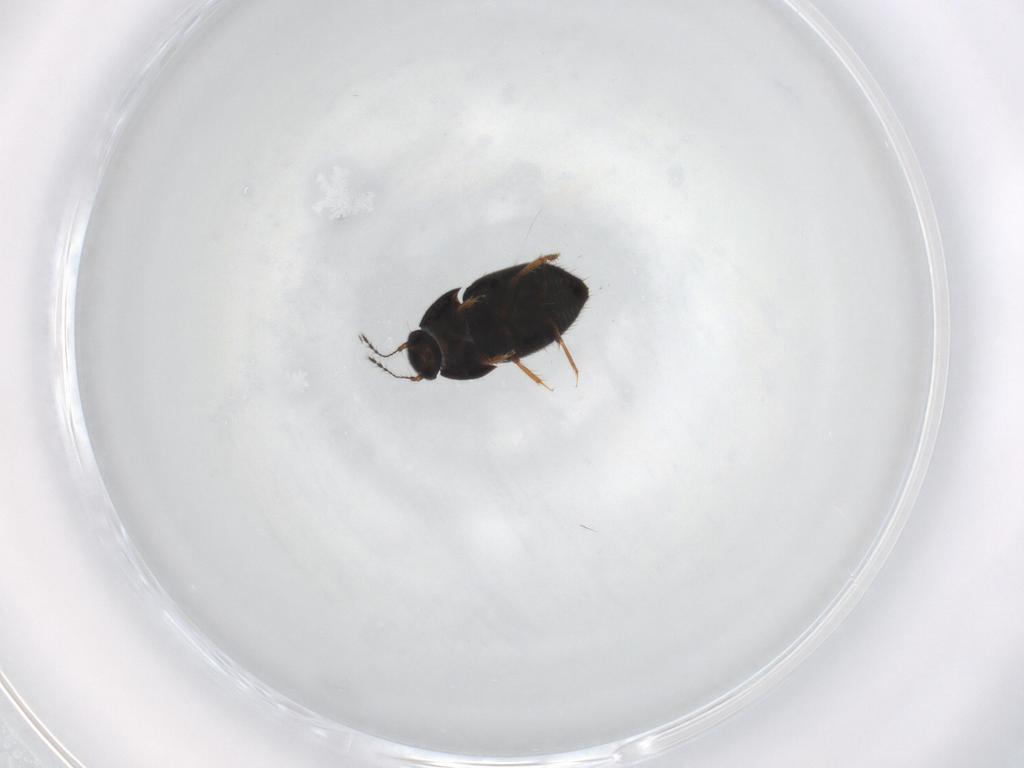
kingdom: Animalia
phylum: Arthropoda
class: Insecta
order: Coleoptera
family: Ptiliidae
